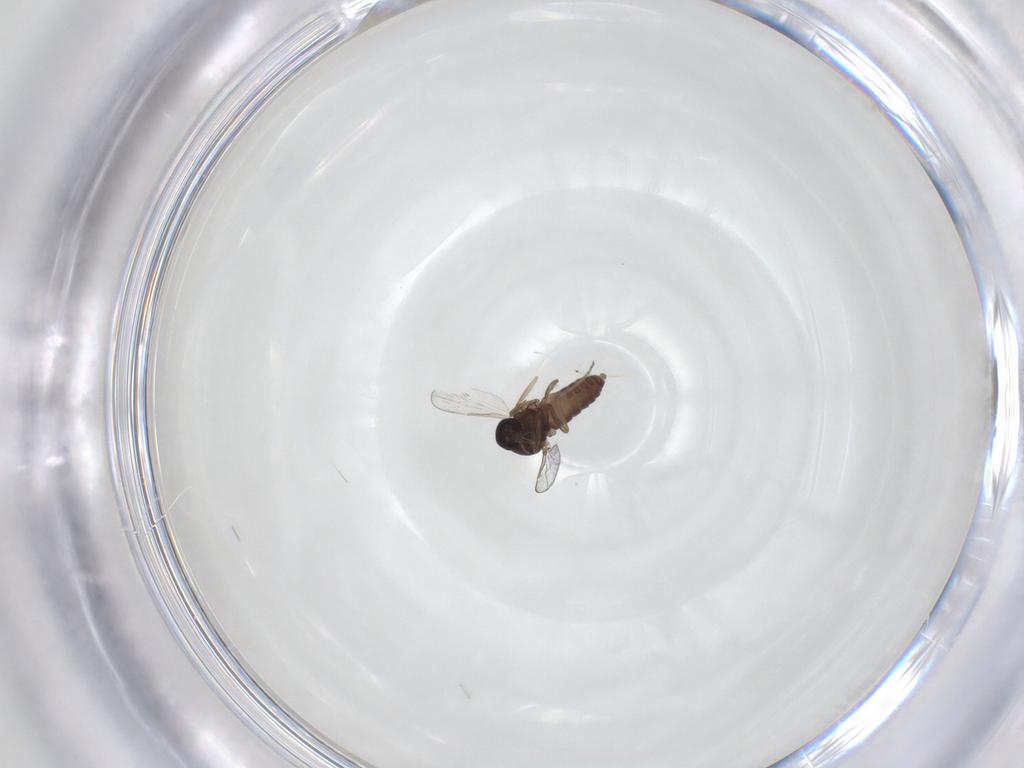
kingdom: Animalia
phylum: Arthropoda
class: Insecta
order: Diptera
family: Ceratopogonidae
